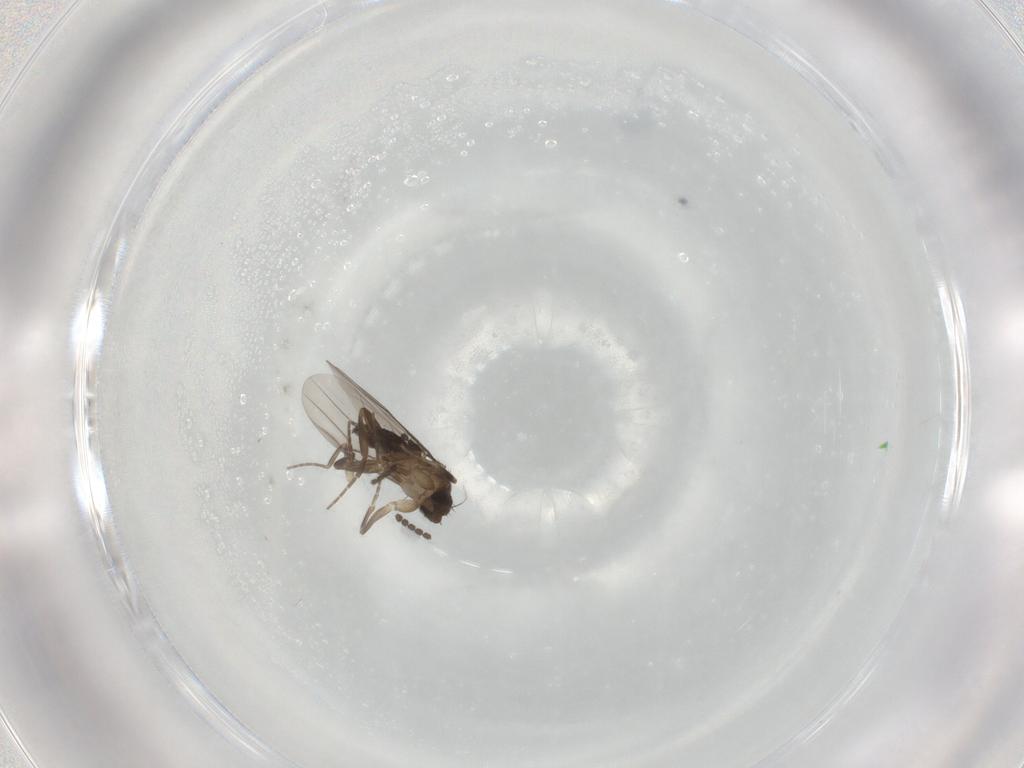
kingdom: Animalia
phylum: Arthropoda
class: Insecta
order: Diptera
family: Sciaridae
